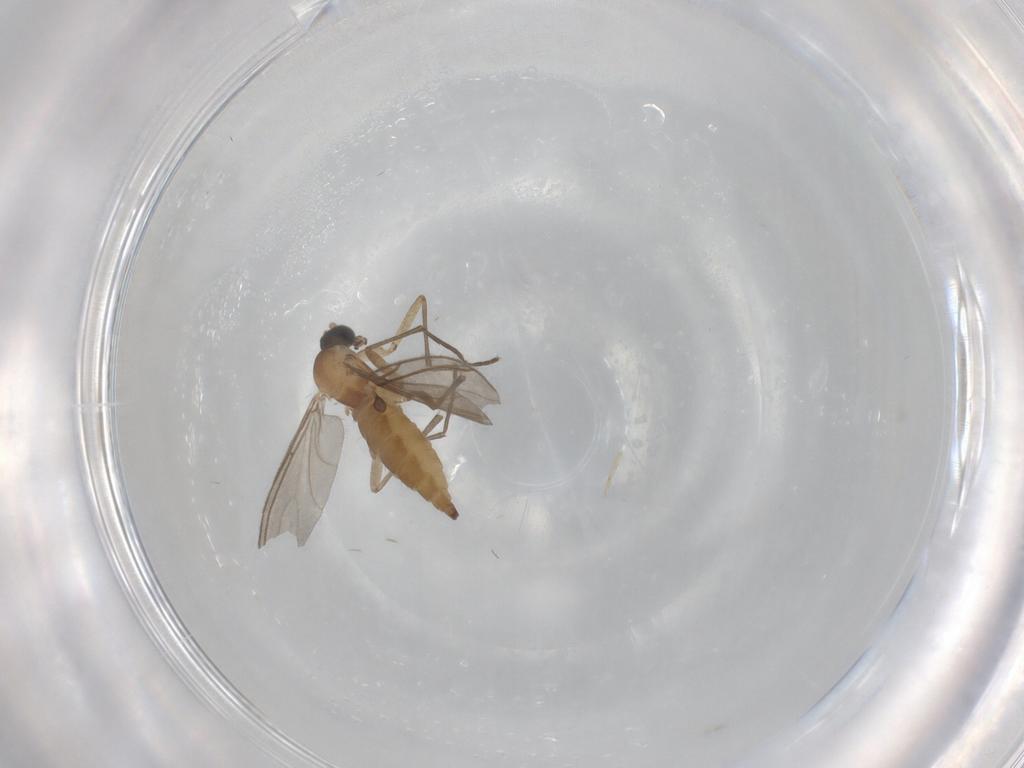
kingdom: Animalia
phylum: Arthropoda
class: Insecta
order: Diptera
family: Sciaridae
